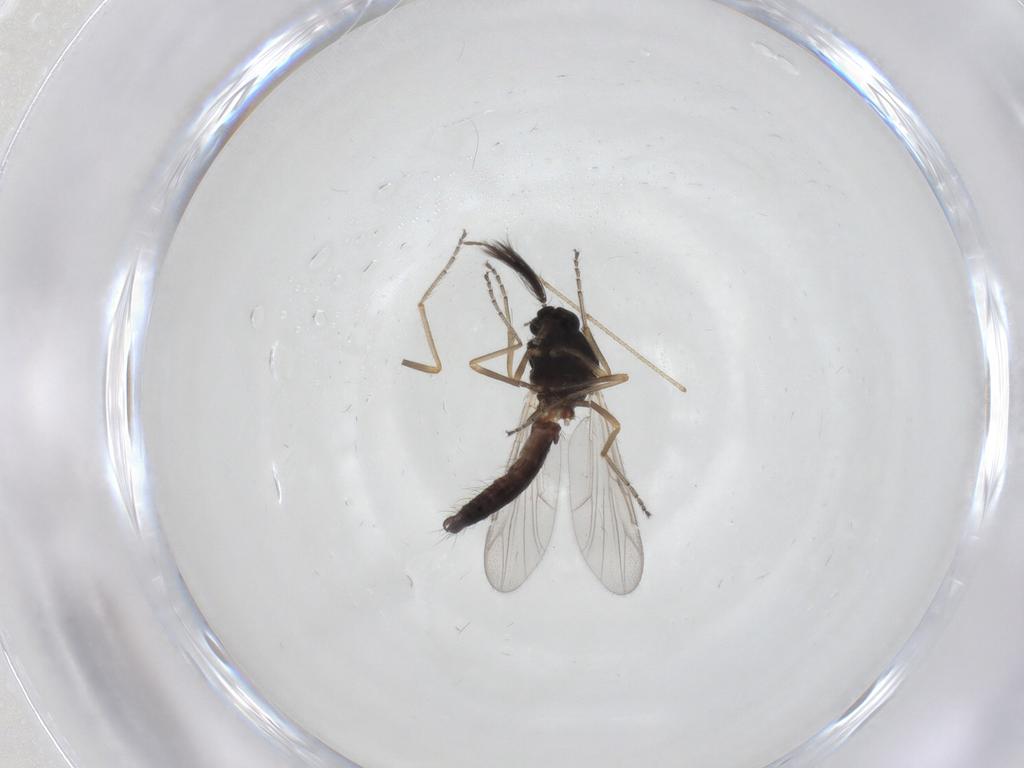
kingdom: Animalia
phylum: Arthropoda
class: Insecta
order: Diptera
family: Ceratopogonidae
